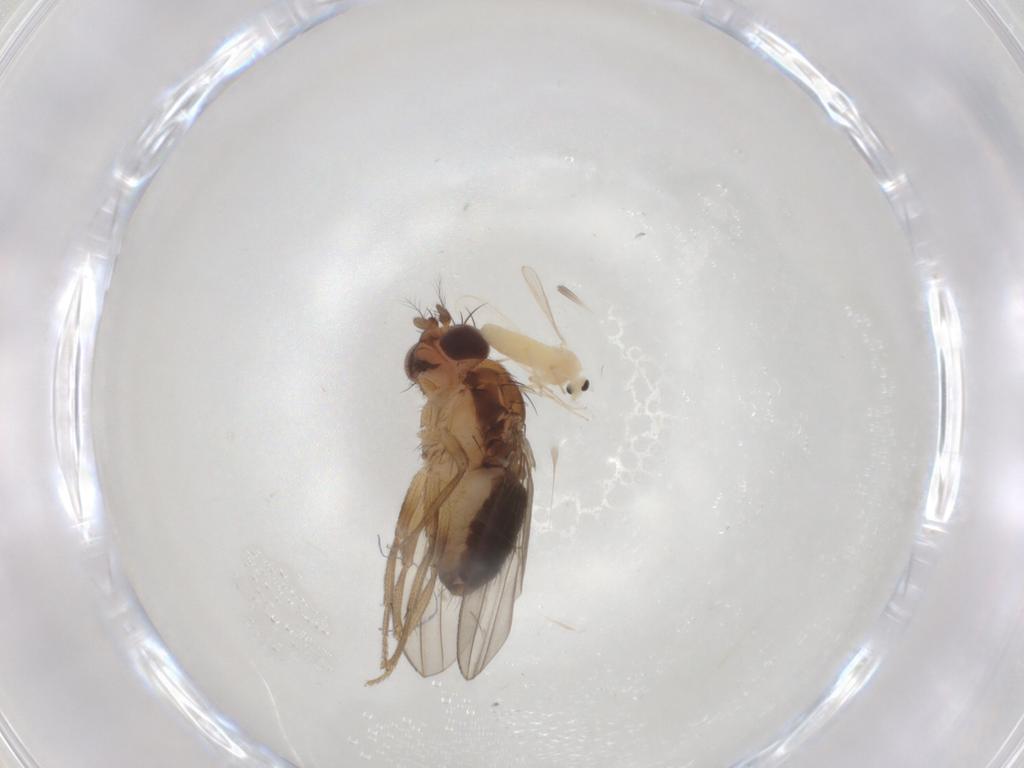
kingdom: Animalia
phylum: Arthropoda
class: Insecta
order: Diptera
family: Drosophilidae
